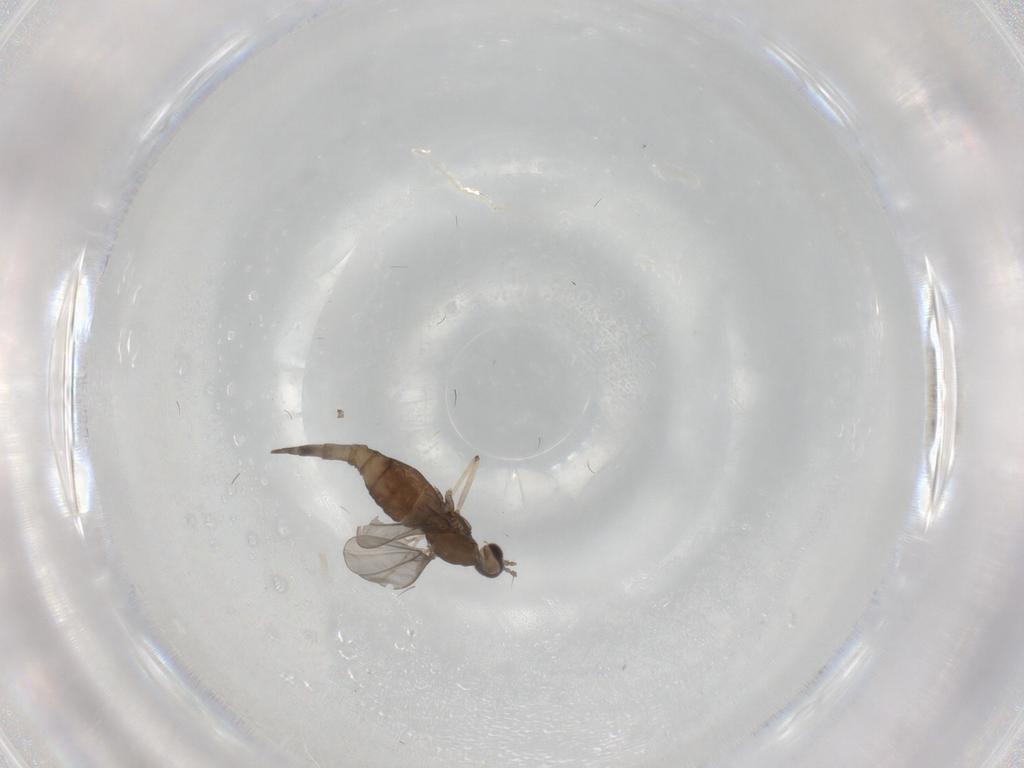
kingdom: Animalia
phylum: Arthropoda
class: Insecta
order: Diptera
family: Cecidomyiidae
